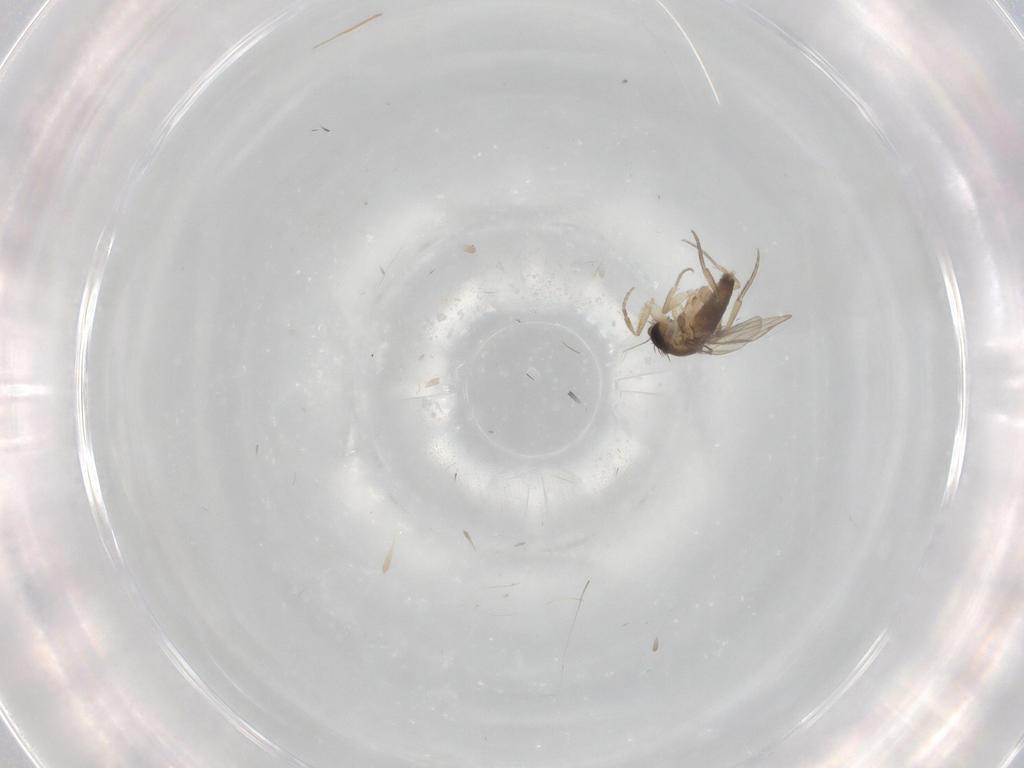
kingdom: Animalia
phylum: Arthropoda
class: Insecta
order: Diptera
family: Phoridae
